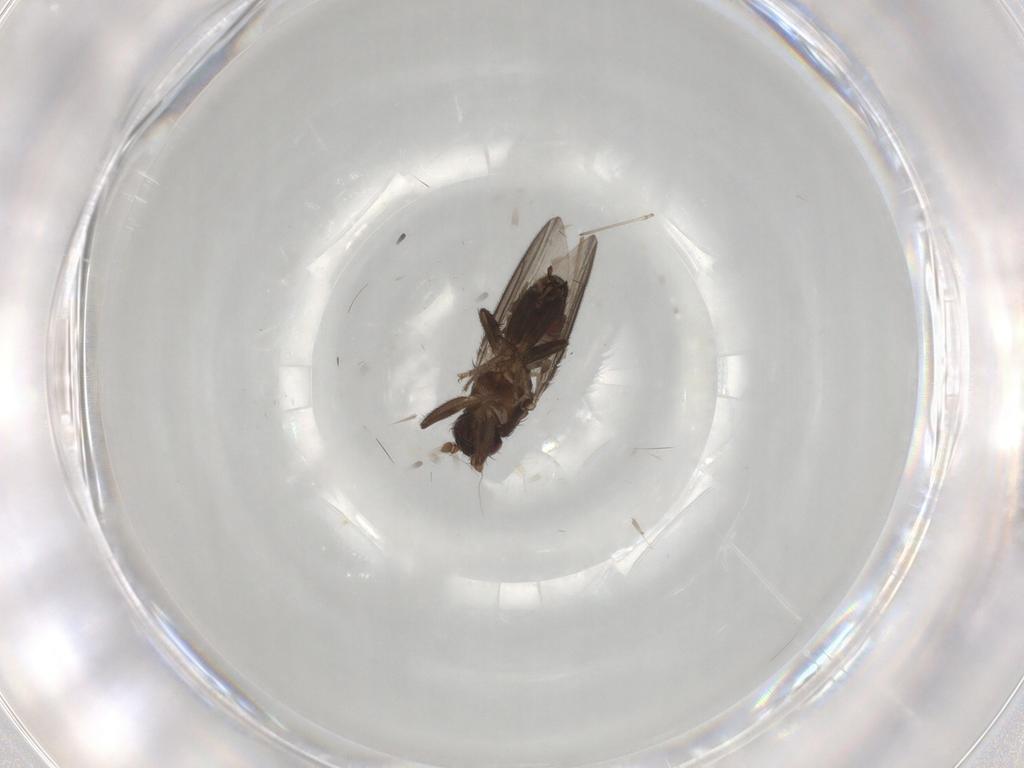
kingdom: Animalia
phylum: Arthropoda
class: Insecta
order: Diptera
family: Sphaeroceridae
